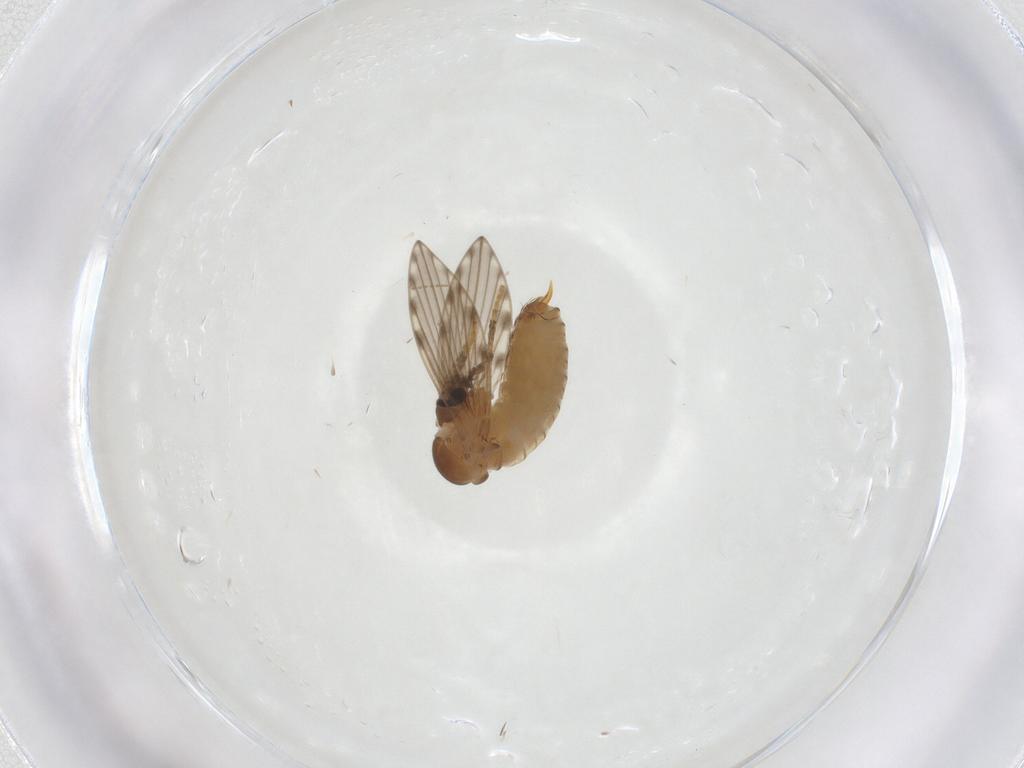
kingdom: Animalia
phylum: Arthropoda
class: Insecta
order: Diptera
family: Psychodidae
